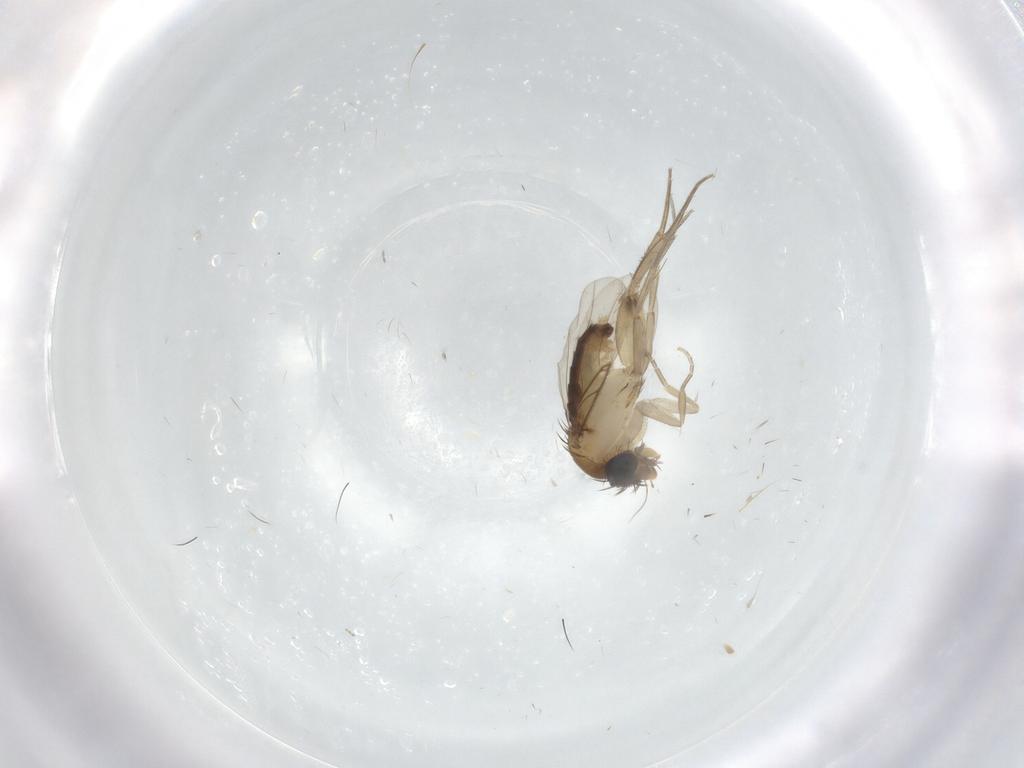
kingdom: Animalia
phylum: Arthropoda
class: Insecta
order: Diptera
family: Phoridae
